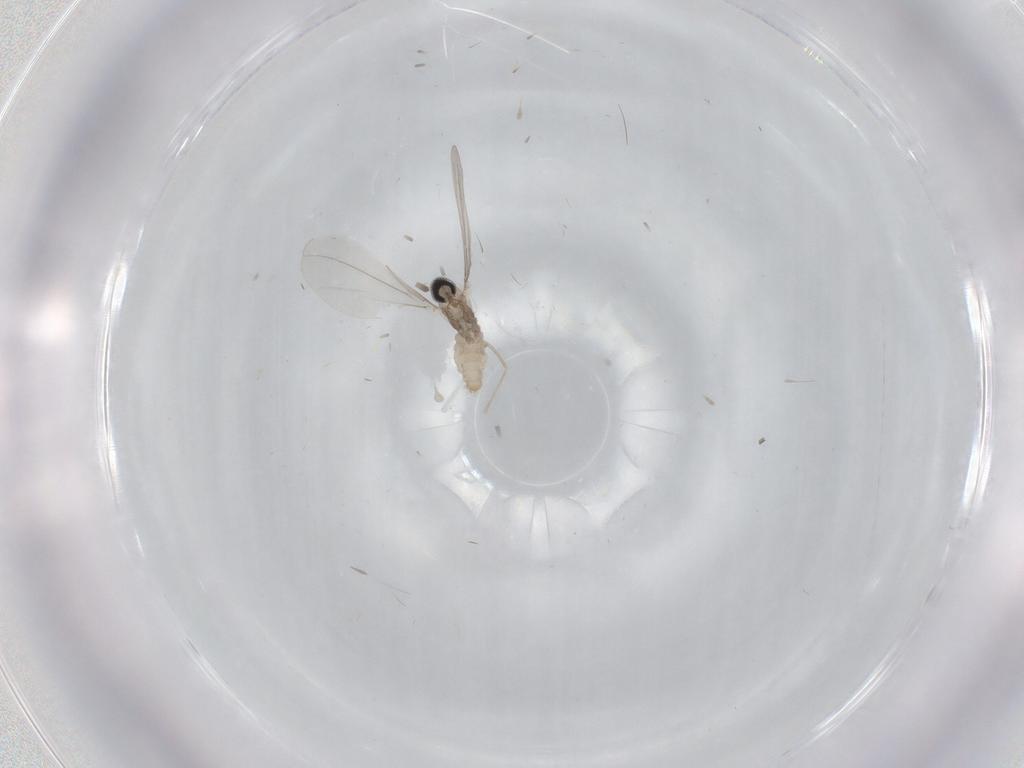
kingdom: Animalia
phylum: Arthropoda
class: Insecta
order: Diptera
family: Cecidomyiidae
